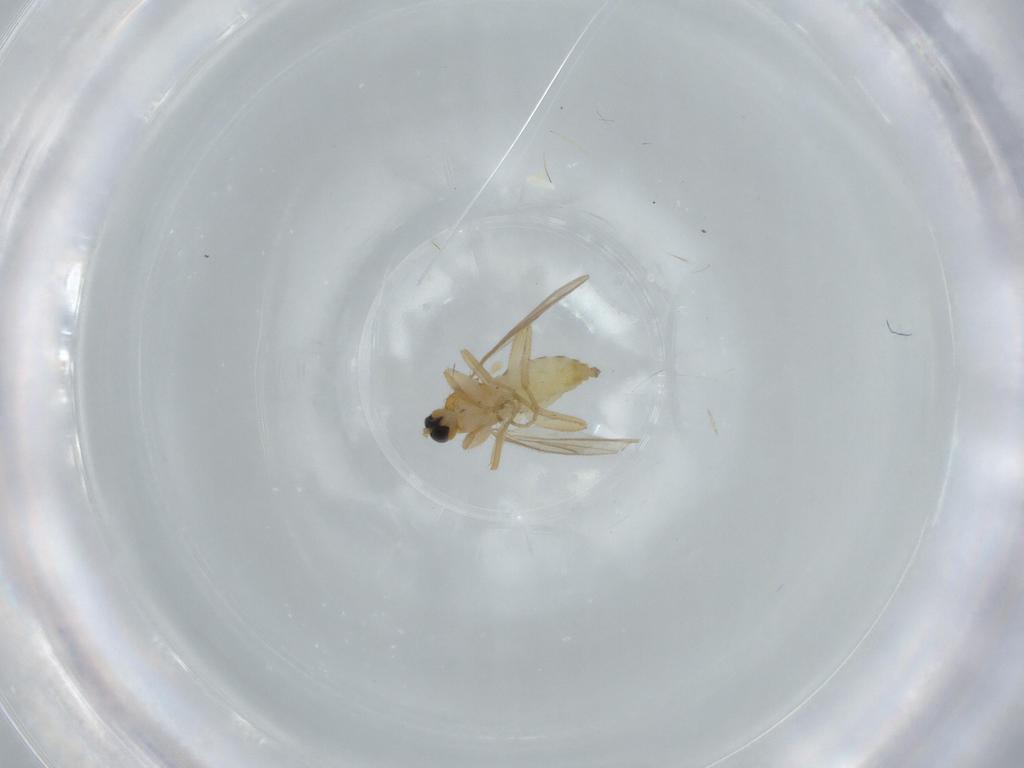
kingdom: Animalia
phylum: Arthropoda
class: Insecta
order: Diptera
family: Hybotidae
